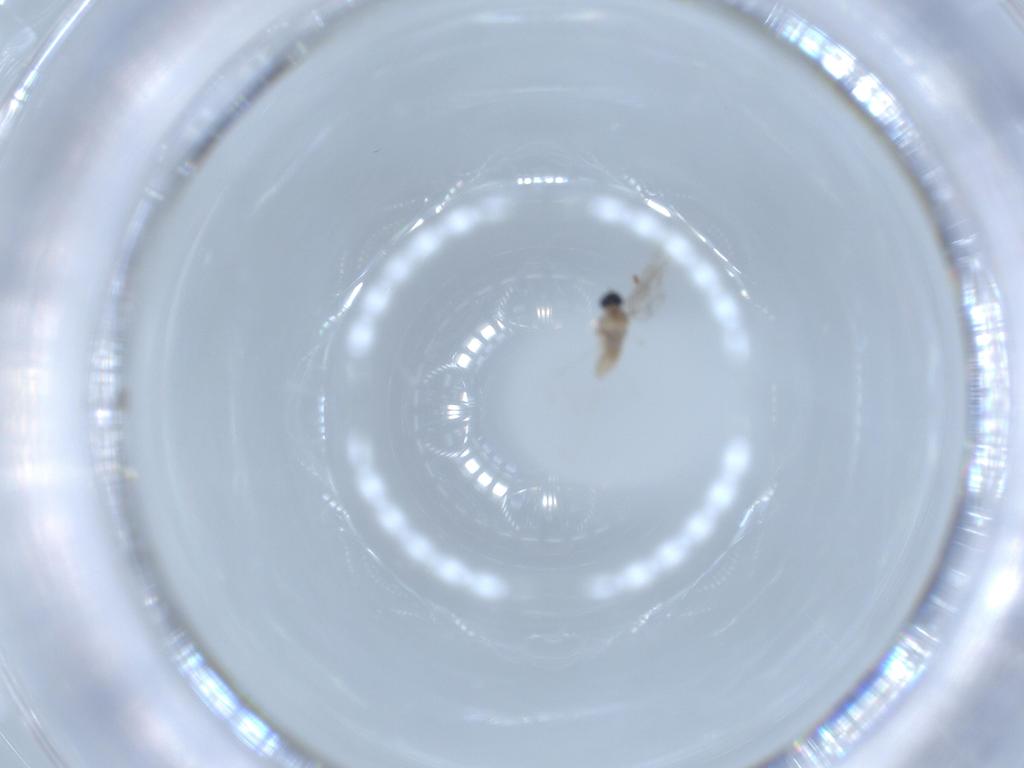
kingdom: Animalia
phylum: Arthropoda
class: Insecta
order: Diptera
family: Cecidomyiidae
